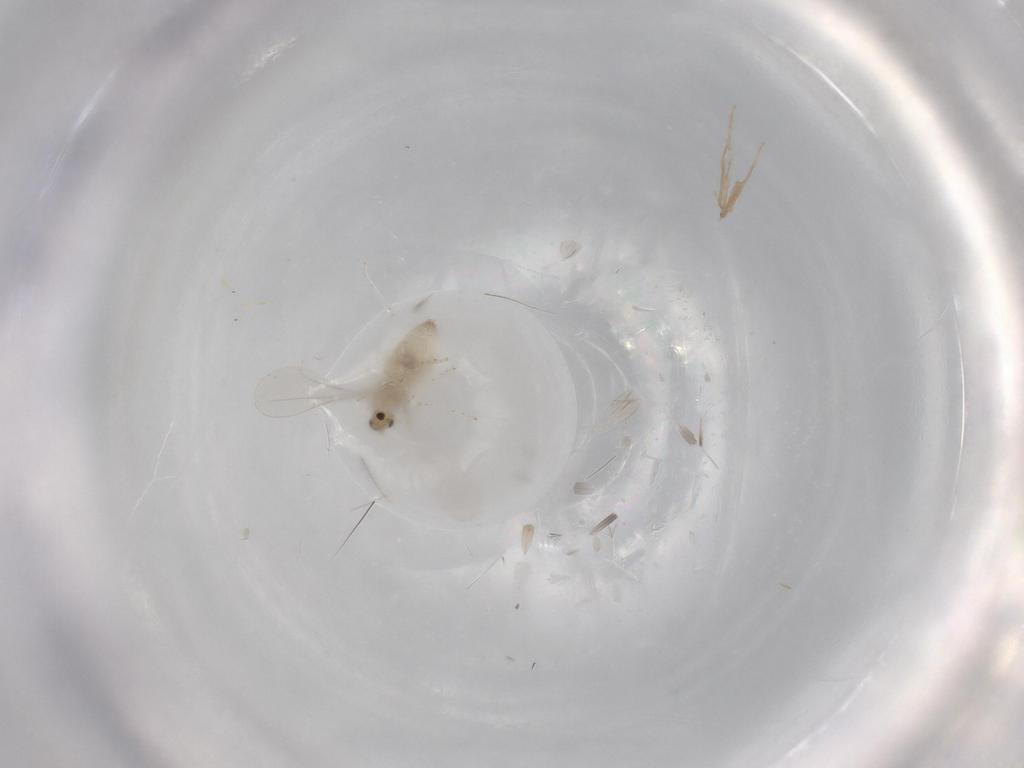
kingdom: Animalia
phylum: Arthropoda
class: Insecta
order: Diptera
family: Cecidomyiidae
